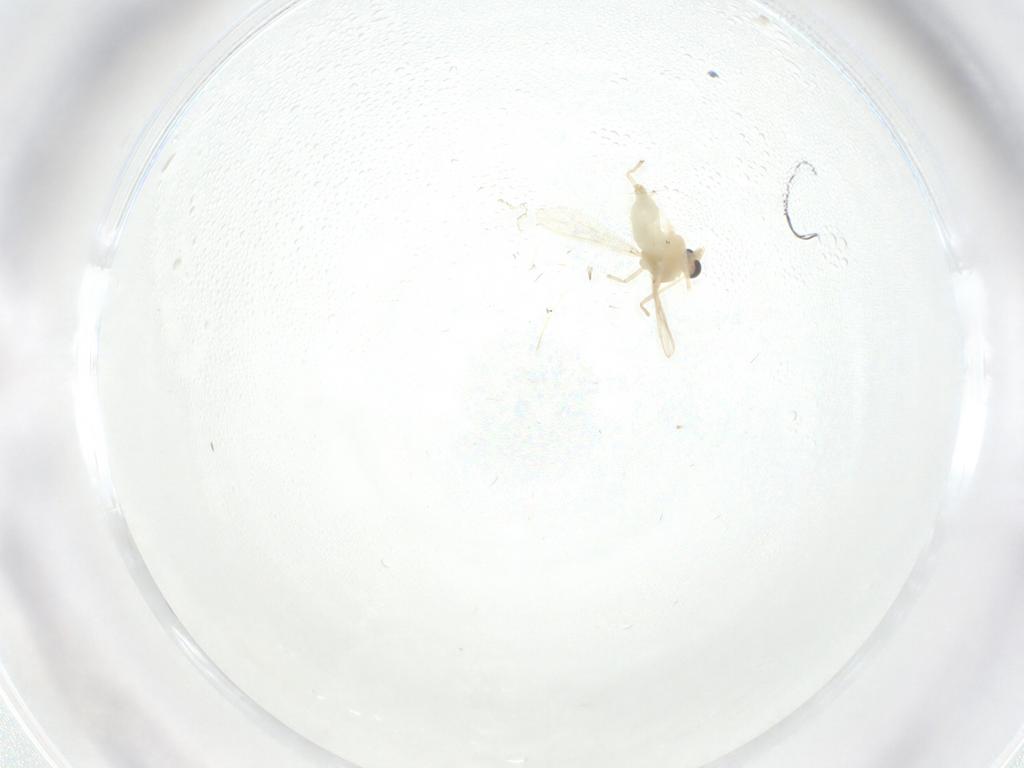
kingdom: Animalia
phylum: Arthropoda
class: Insecta
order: Diptera
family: Chironomidae
